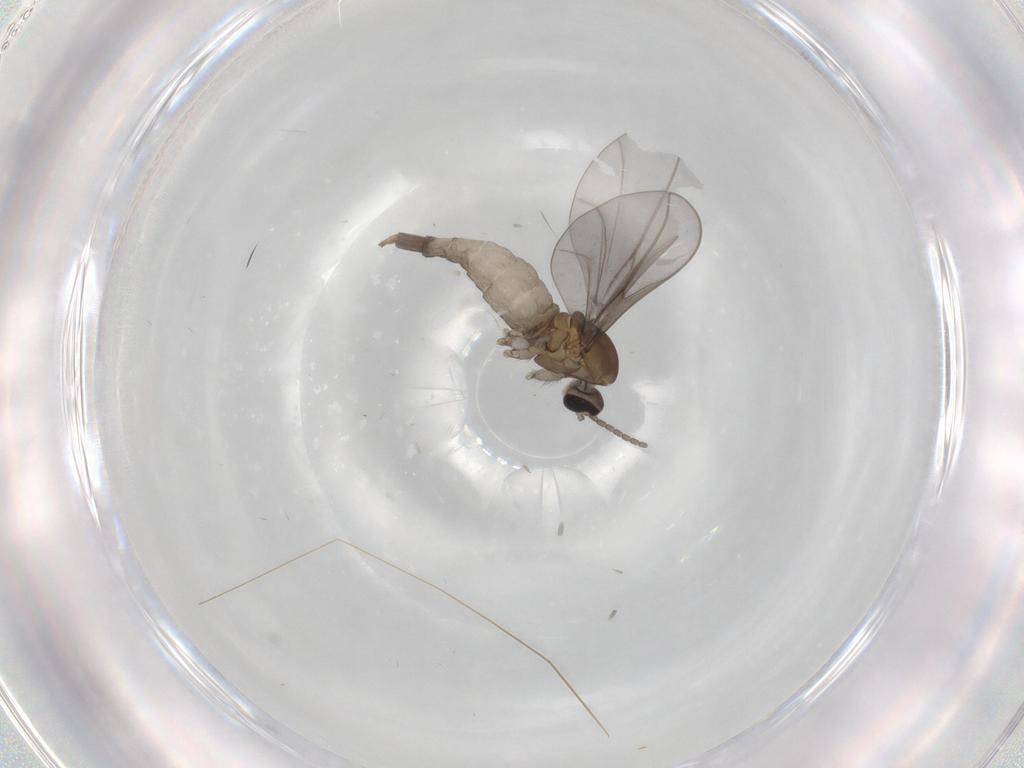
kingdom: Animalia
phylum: Arthropoda
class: Insecta
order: Diptera
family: Cecidomyiidae
